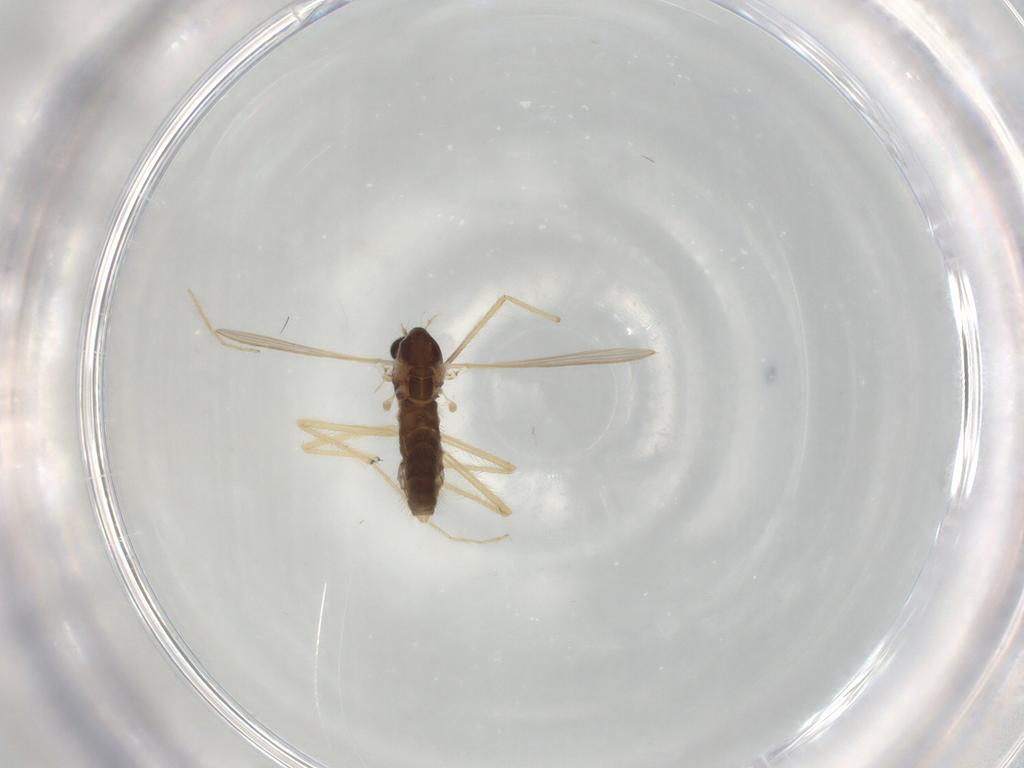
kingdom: Animalia
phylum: Arthropoda
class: Insecta
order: Diptera
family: Chironomidae
